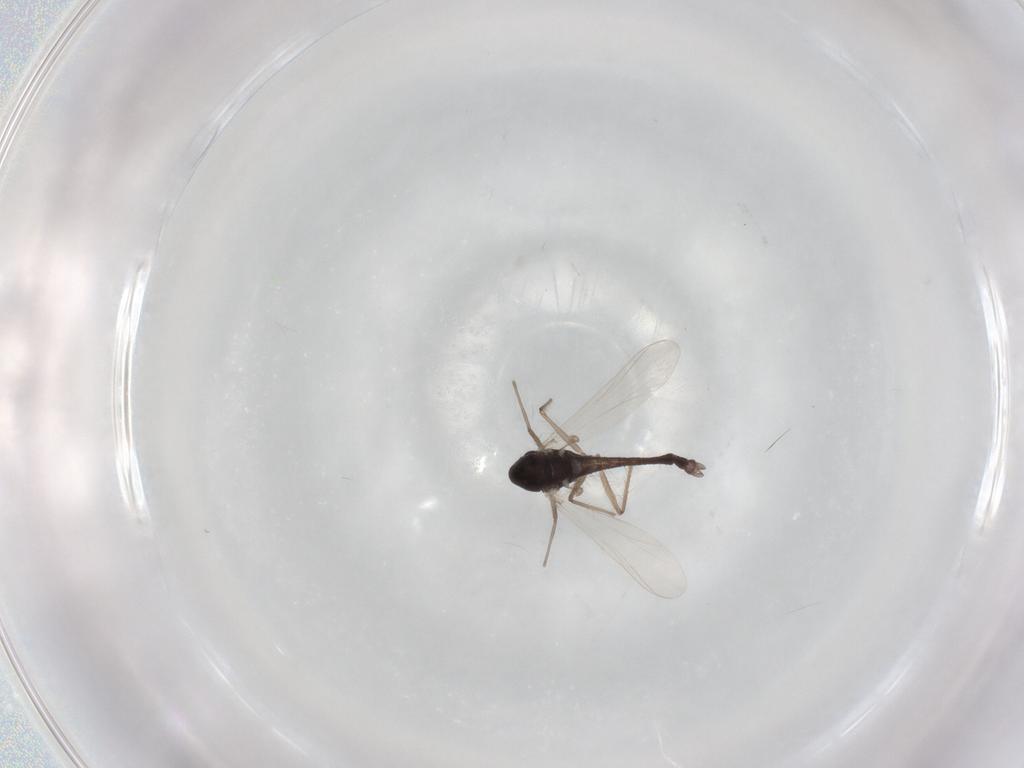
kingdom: Animalia
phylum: Arthropoda
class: Insecta
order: Diptera
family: Chironomidae
